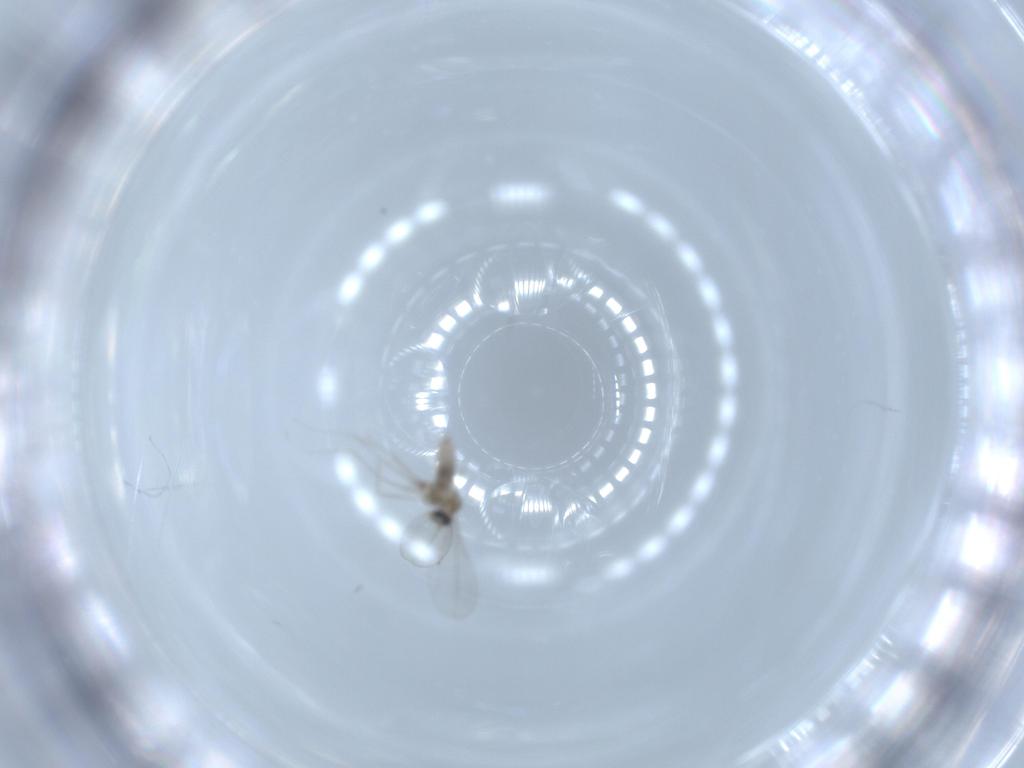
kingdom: Animalia
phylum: Arthropoda
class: Insecta
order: Diptera
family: Cecidomyiidae
